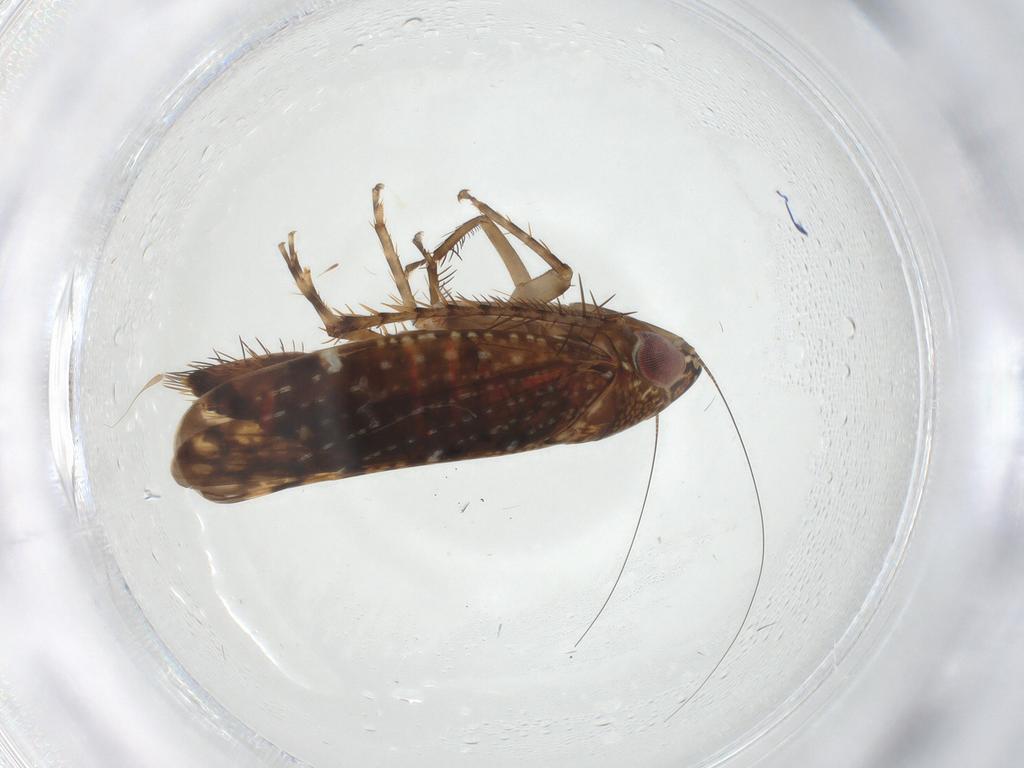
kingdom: Animalia
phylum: Arthropoda
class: Insecta
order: Hemiptera
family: Cicadellidae
